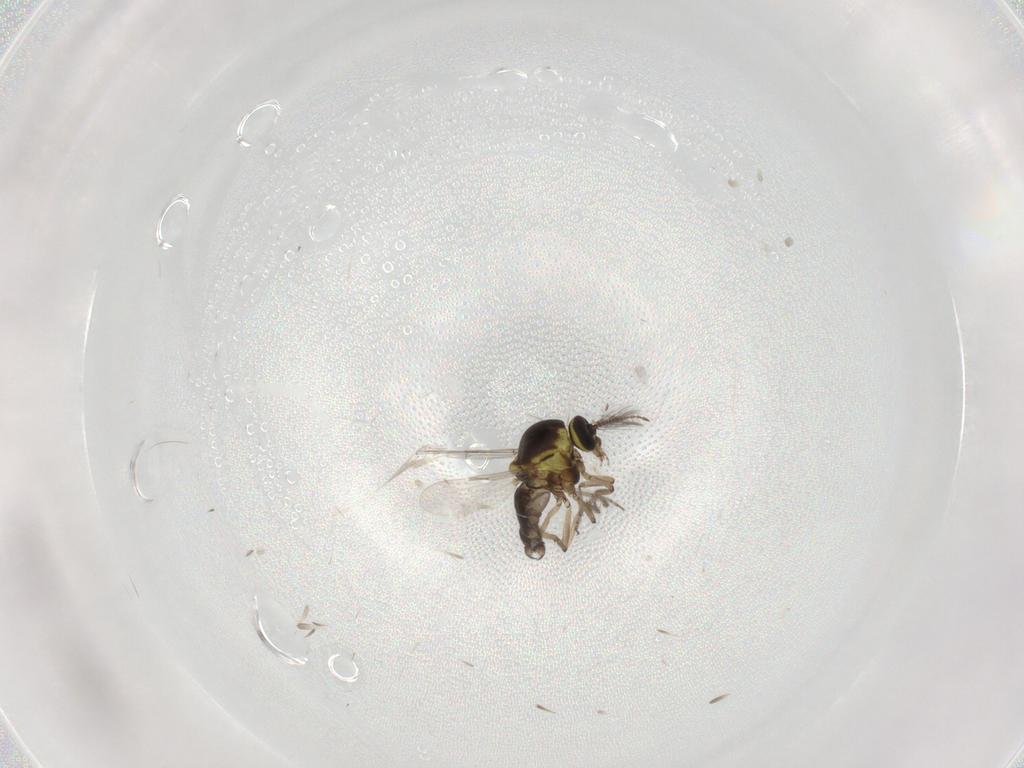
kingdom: Animalia
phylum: Arthropoda
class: Insecta
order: Diptera
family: Ceratopogonidae
